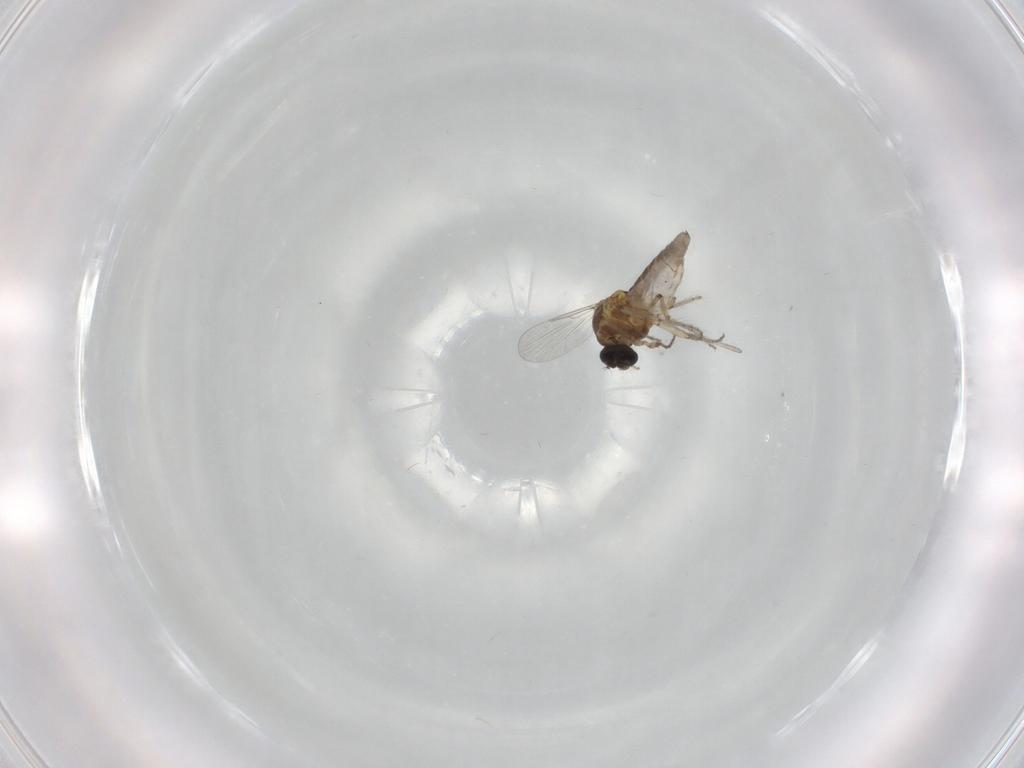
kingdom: Animalia
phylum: Arthropoda
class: Insecta
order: Diptera
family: Ceratopogonidae
